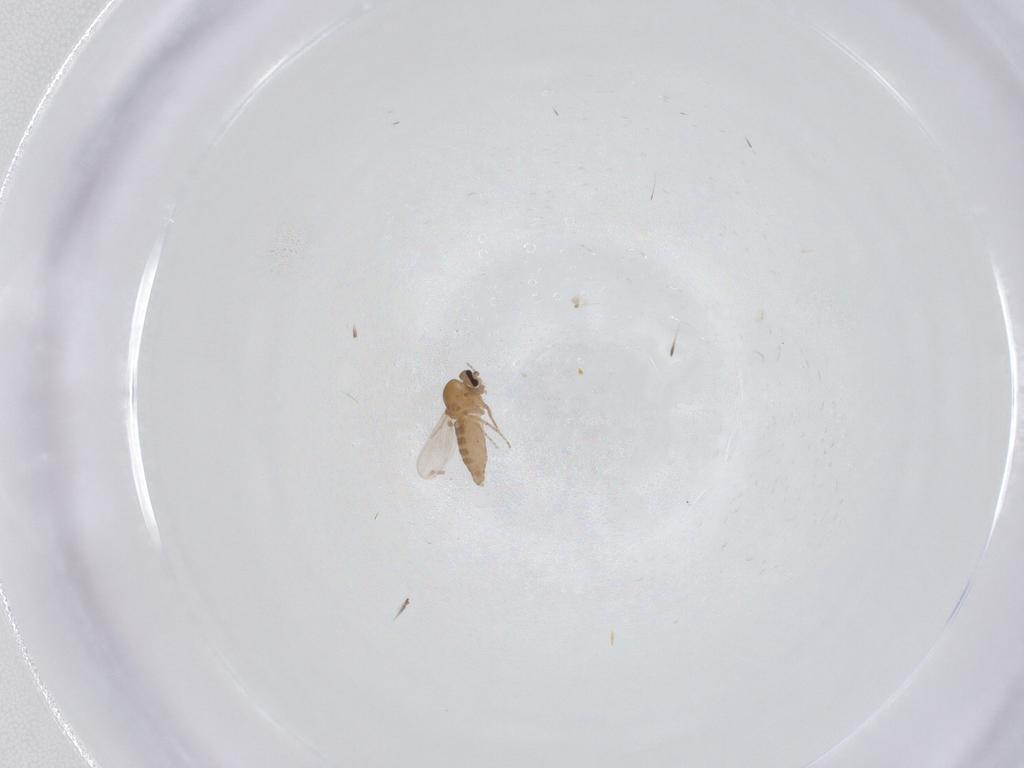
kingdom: Animalia
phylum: Arthropoda
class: Insecta
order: Diptera
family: Ceratopogonidae
